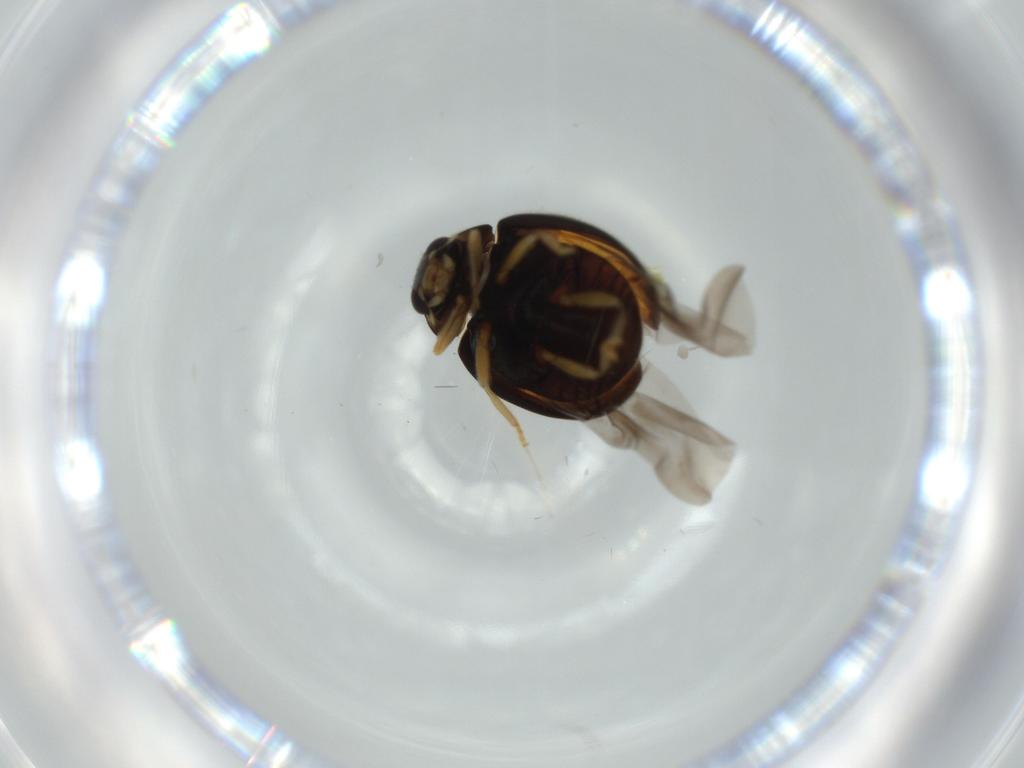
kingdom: Animalia
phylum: Arthropoda
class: Insecta
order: Coleoptera
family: Coccinellidae
